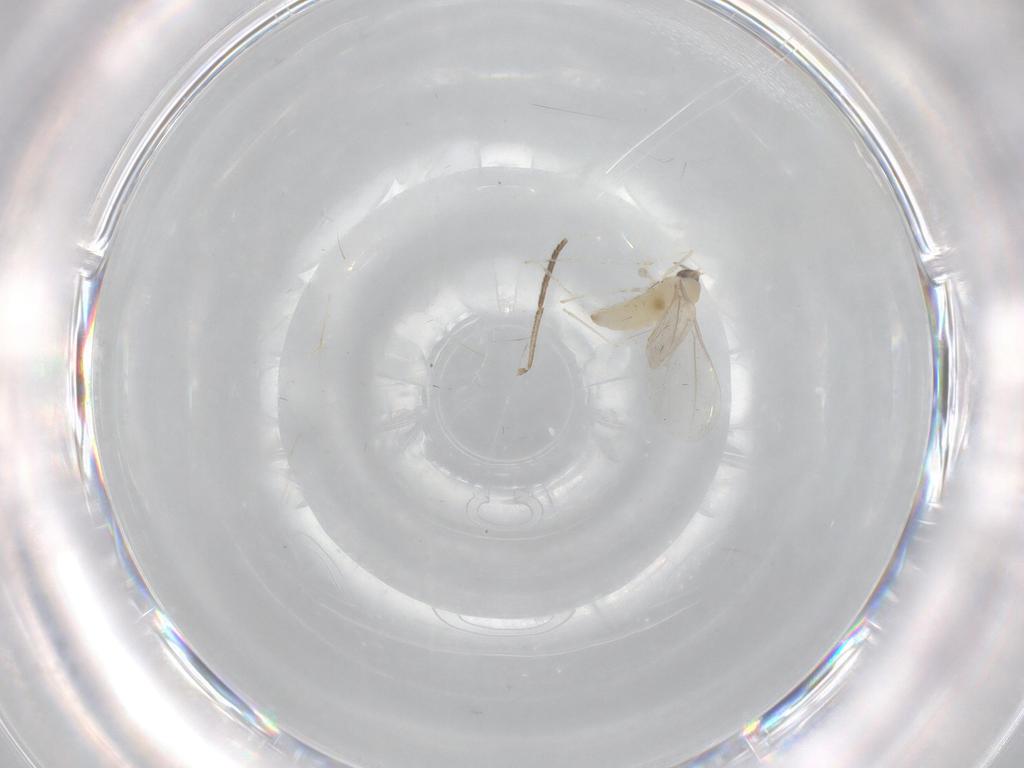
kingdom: Animalia
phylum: Arthropoda
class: Insecta
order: Diptera
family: Cecidomyiidae
